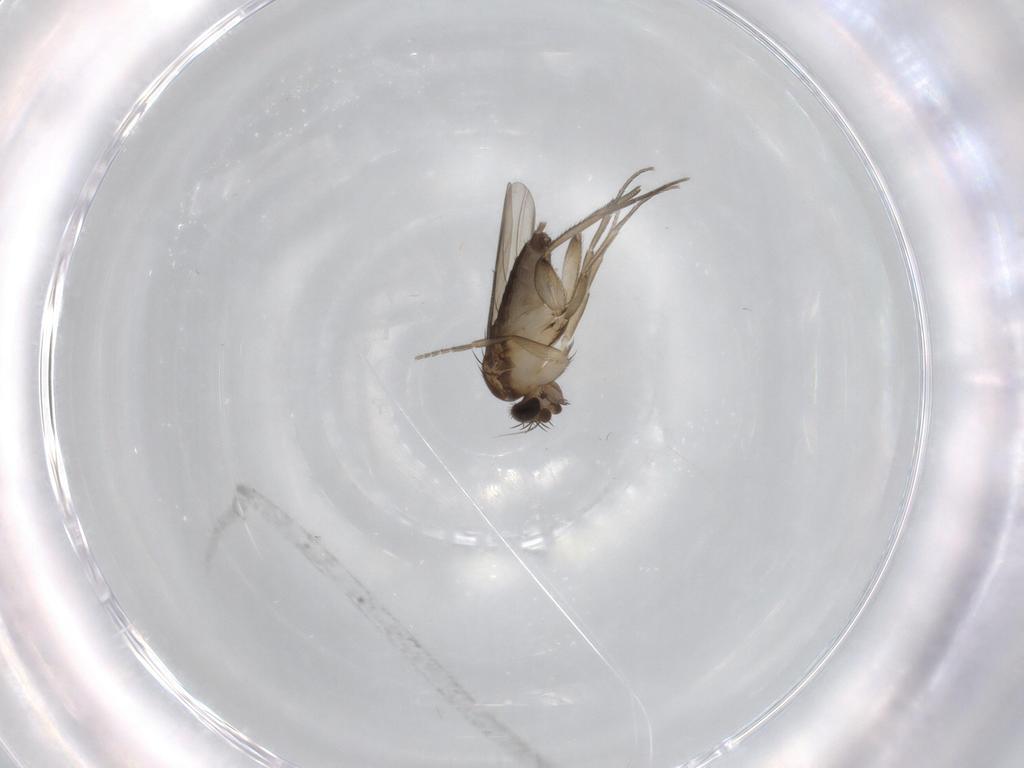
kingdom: Animalia
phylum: Arthropoda
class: Insecta
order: Diptera
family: Phoridae
